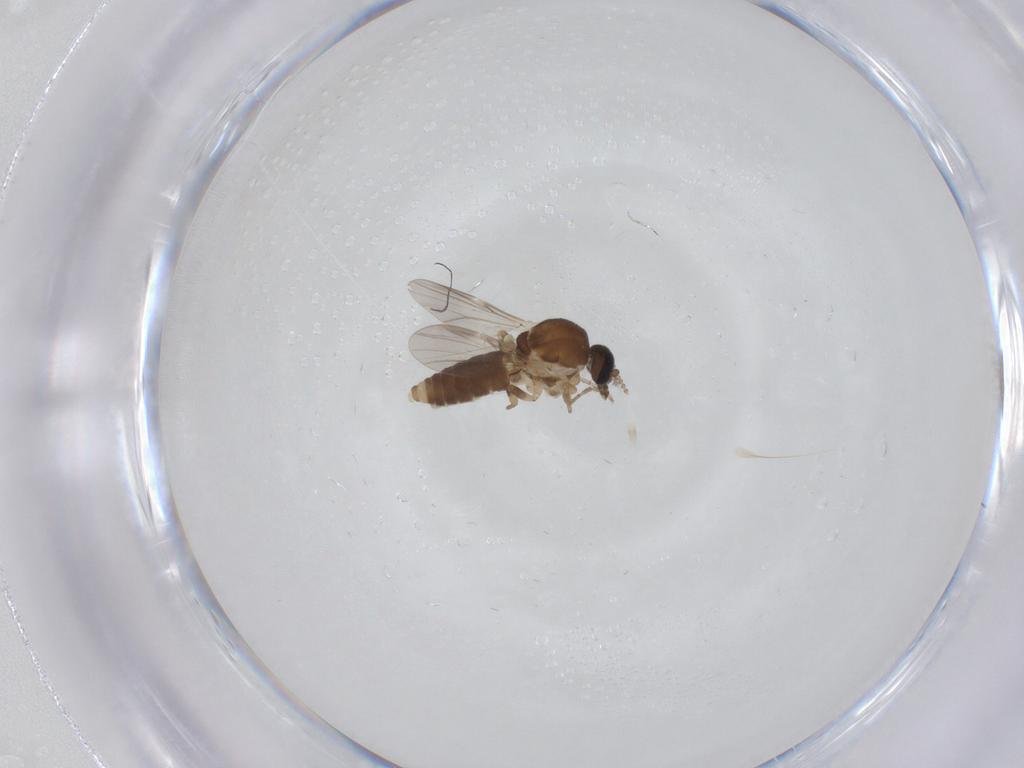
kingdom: Animalia
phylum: Arthropoda
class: Insecta
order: Diptera
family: Ceratopogonidae
